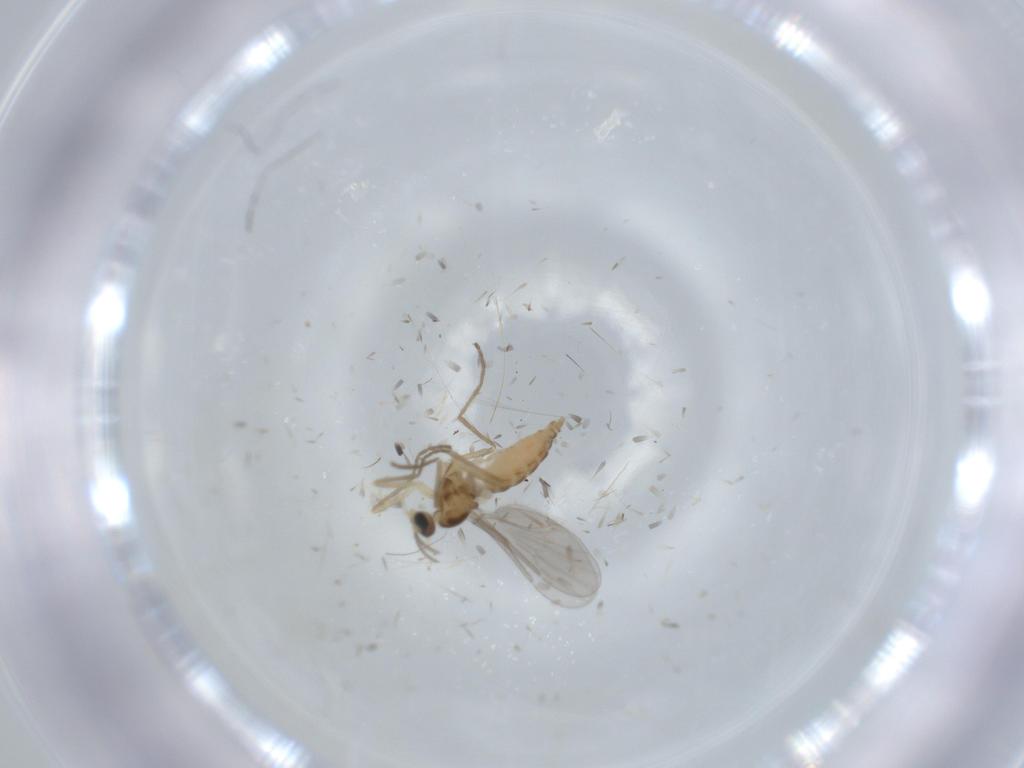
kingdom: Animalia
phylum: Arthropoda
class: Insecta
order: Diptera
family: Cecidomyiidae
